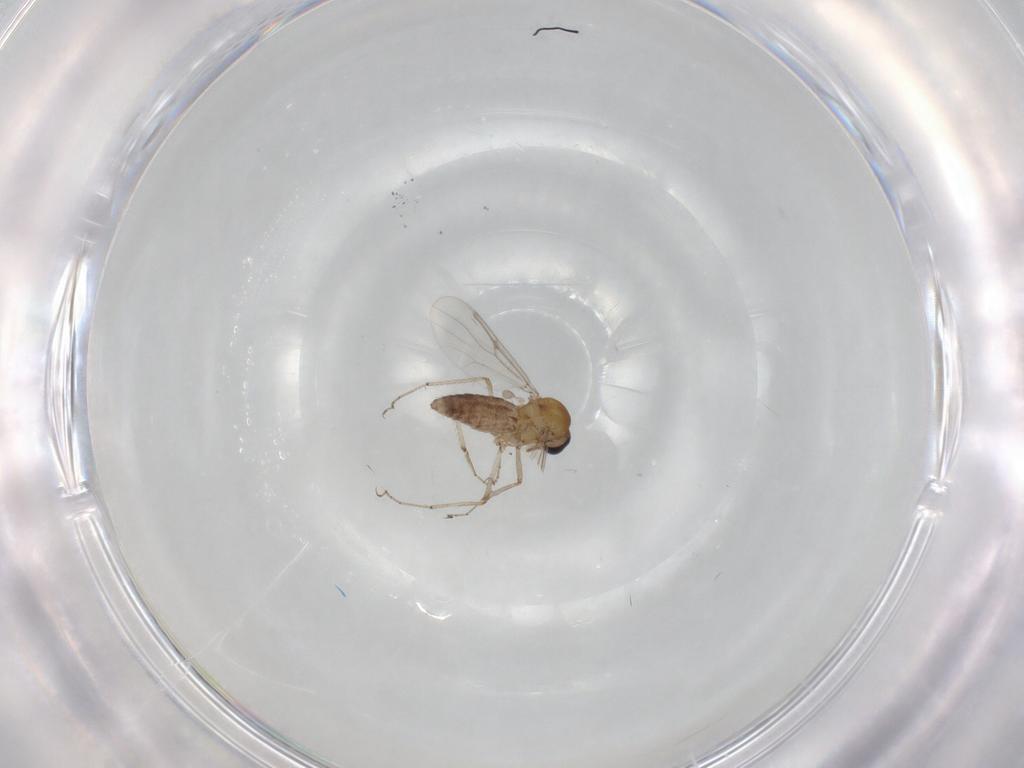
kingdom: Animalia
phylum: Arthropoda
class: Insecta
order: Diptera
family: Ceratopogonidae
